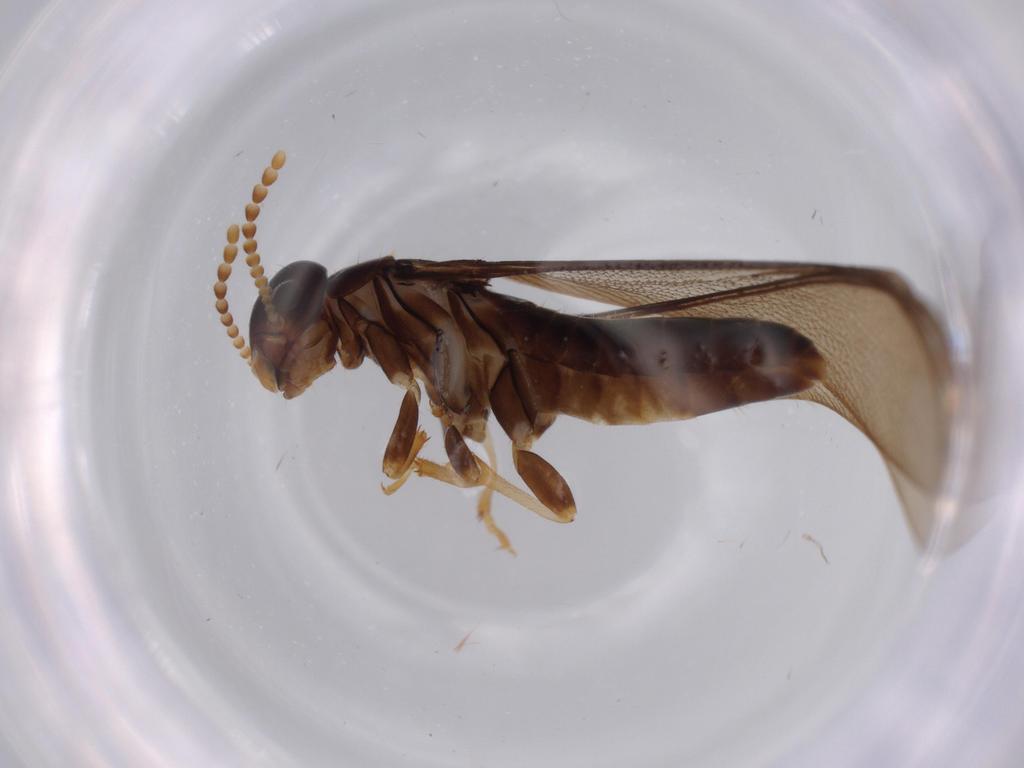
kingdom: Animalia
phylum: Arthropoda
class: Insecta
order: Blattodea
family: Blattidae
